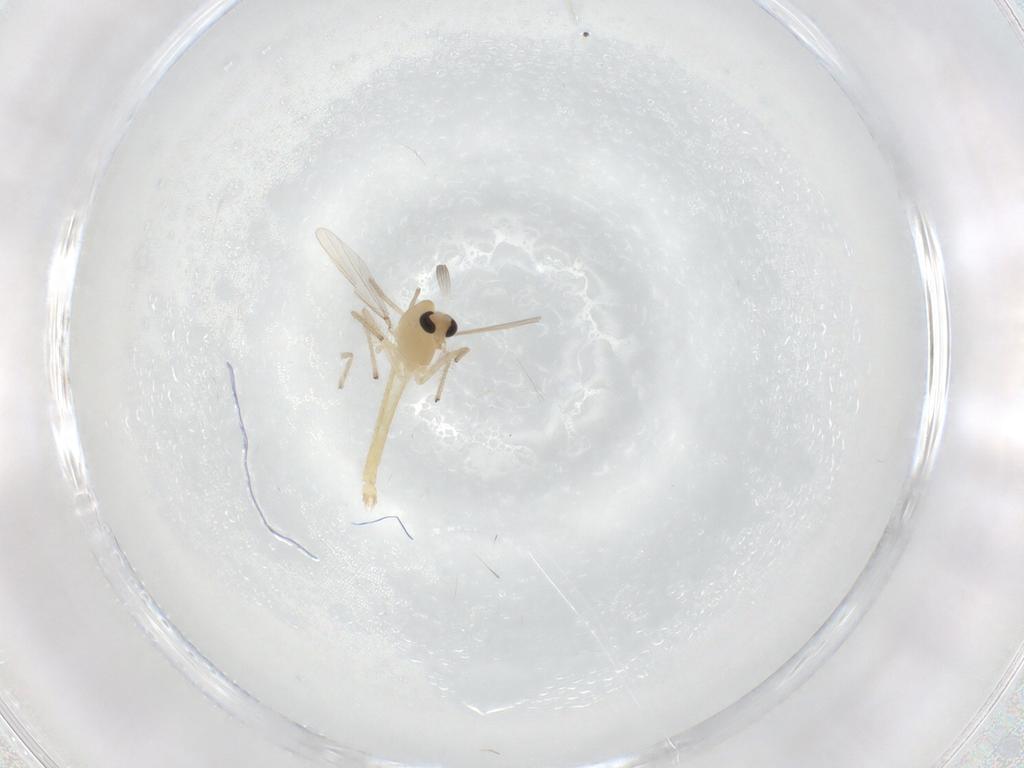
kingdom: Animalia
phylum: Arthropoda
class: Insecta
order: Diptera
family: Chironomidae
